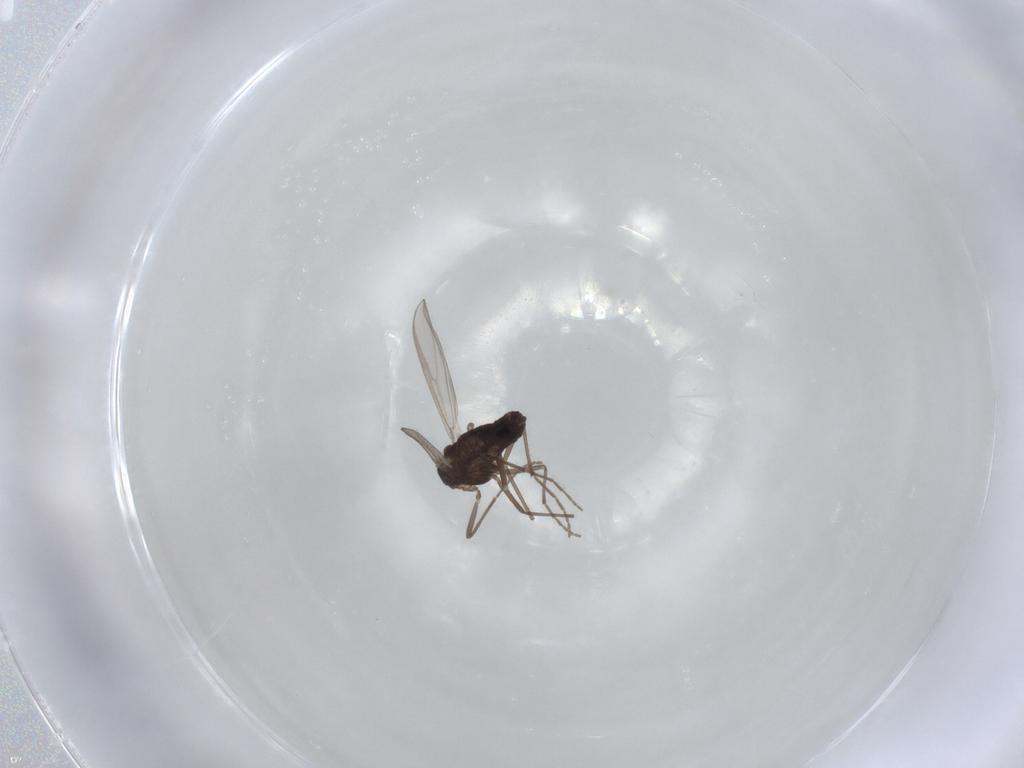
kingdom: Animalia
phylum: Arthropoda
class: Insecta
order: Diptera
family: Chironomidae
